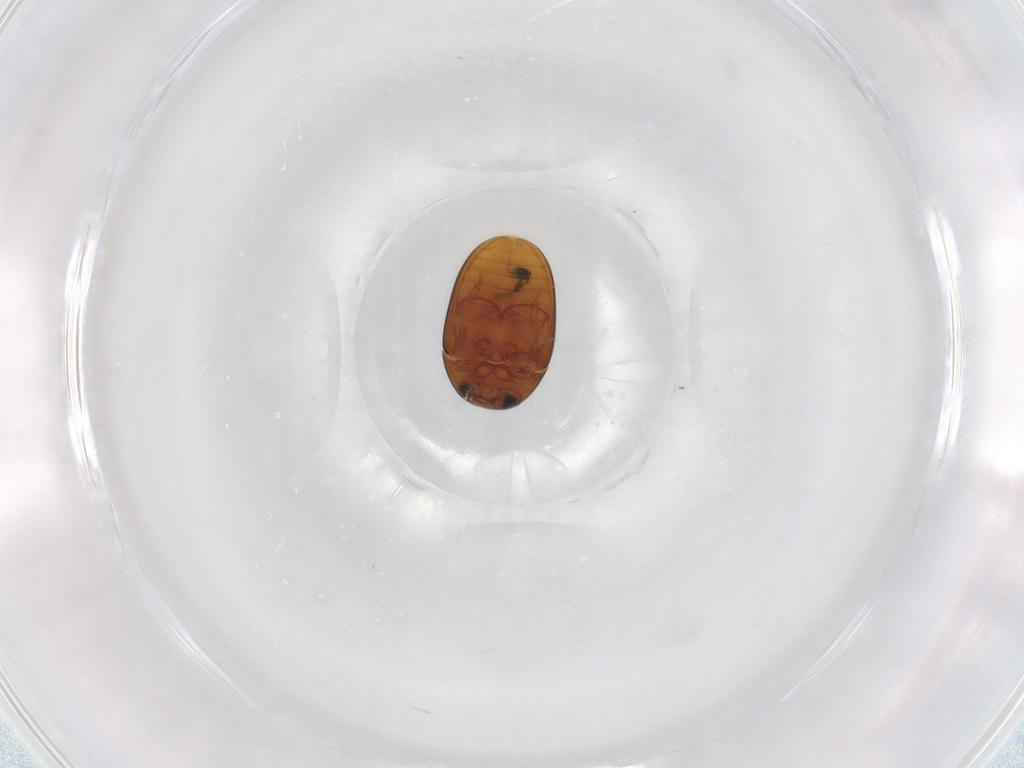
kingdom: Animalia
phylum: Arthropoda
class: Insecta
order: Coleoptera
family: Phalacridae
